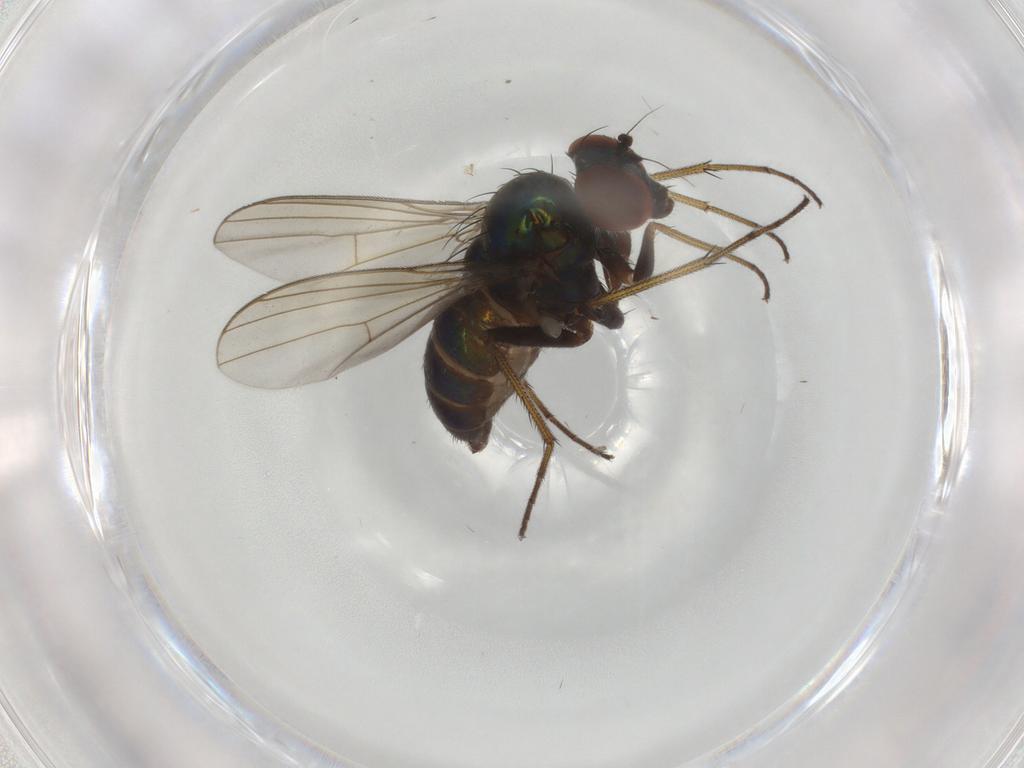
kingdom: Animalia
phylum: Arthropoda
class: Insecta
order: Diptera
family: Dolichopodidae
